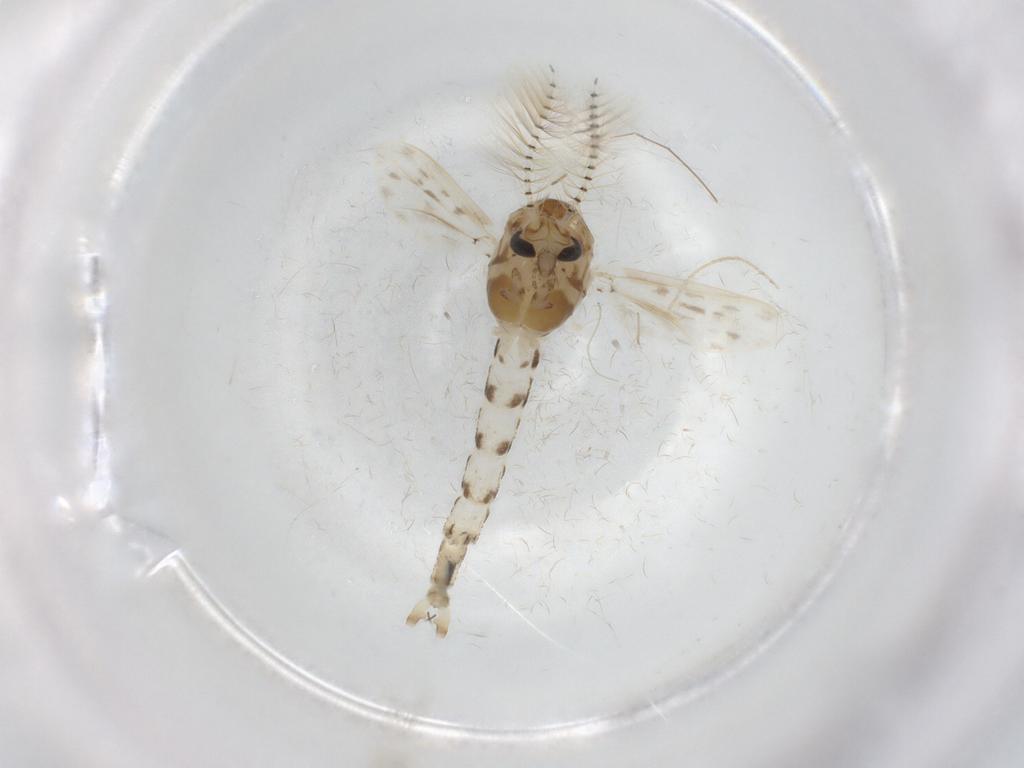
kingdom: Animalia
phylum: Arthropoda
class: Insecta
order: Diptera
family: Chaoboridae
